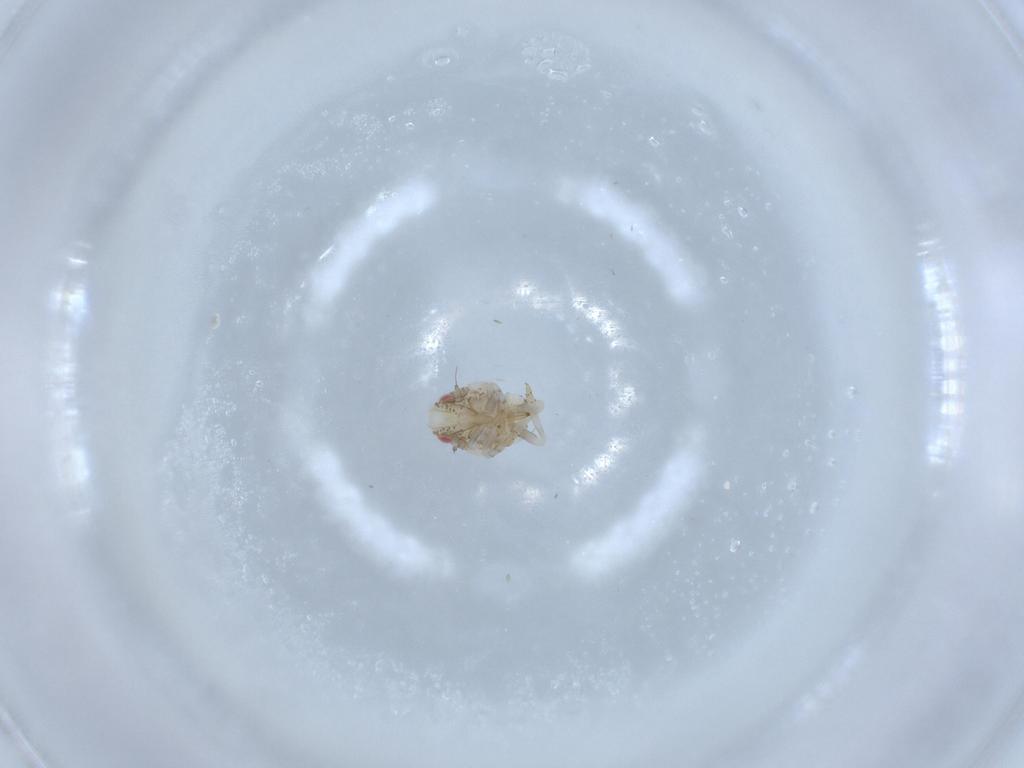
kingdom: Animalia
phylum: Arthropoda
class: Insecta
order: Hemiptera
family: Acanaloniidae
